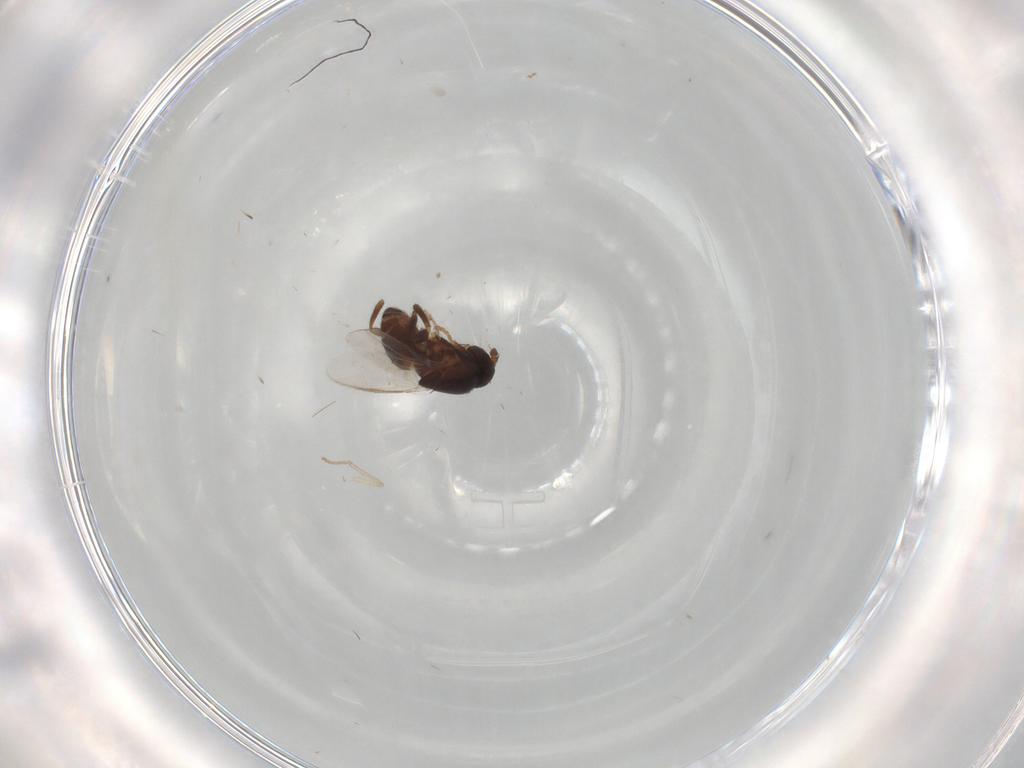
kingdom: Animalia
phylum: Arthropoda
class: Insecta
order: Diptera
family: Sphaeroceridae
